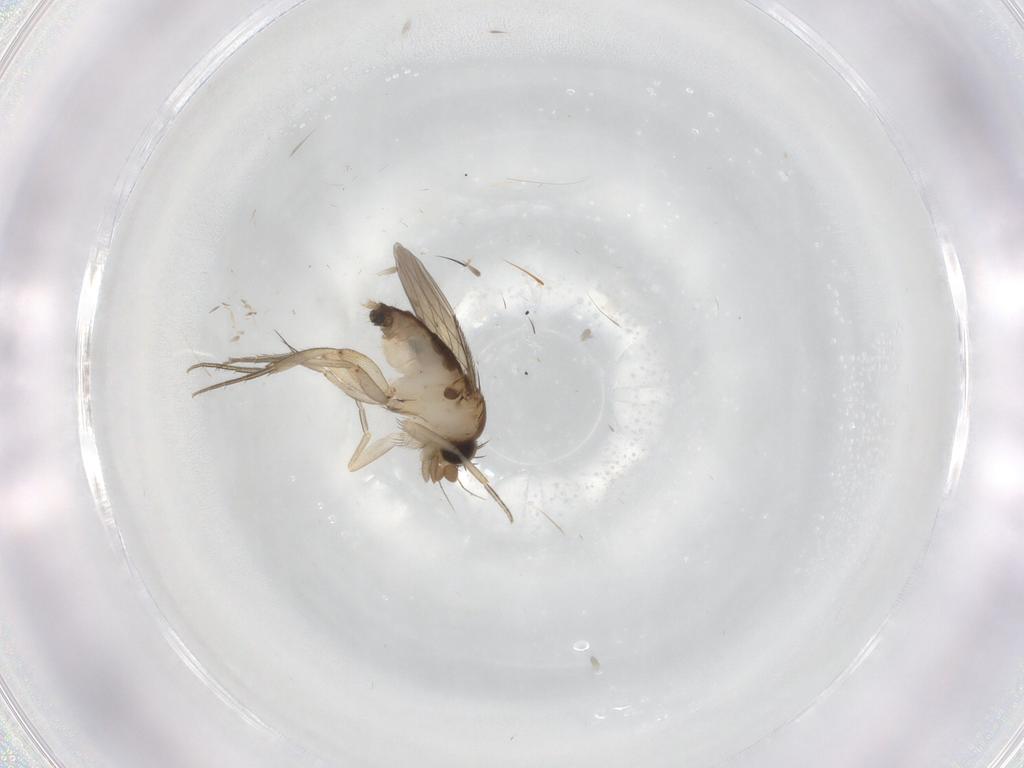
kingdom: Animalia
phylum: Arthropoda
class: Insecta
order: Diptera
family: Phoridae
